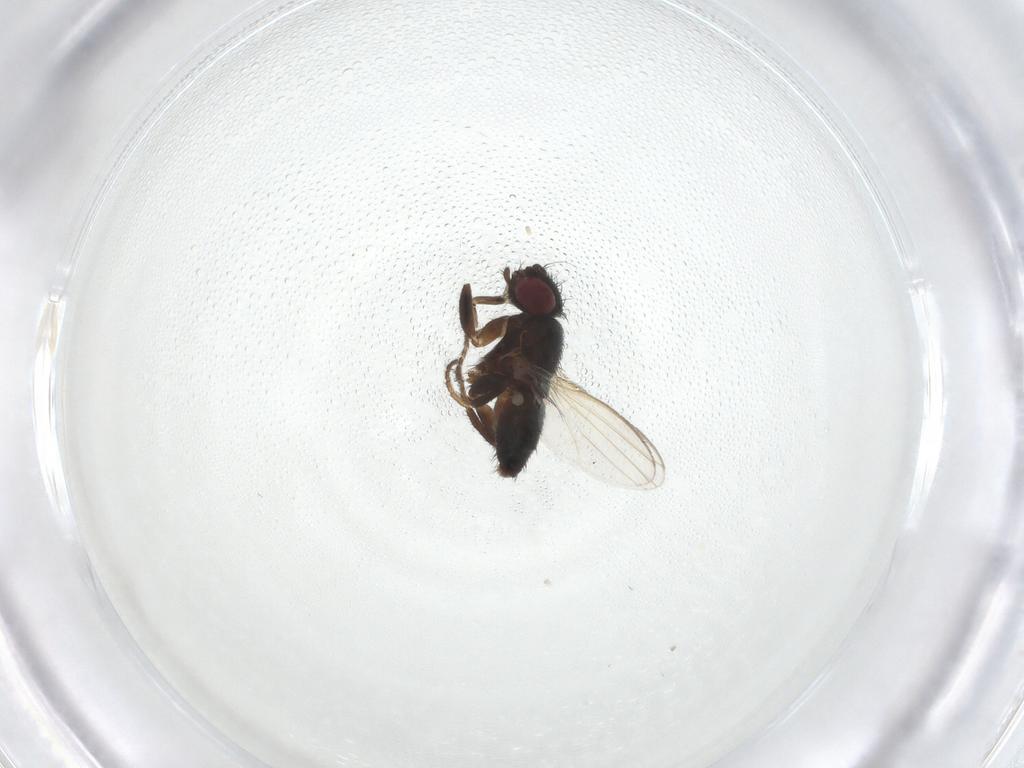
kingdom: Animalia
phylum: Arthropoda
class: Insecta
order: Diptera
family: Milichiidae
